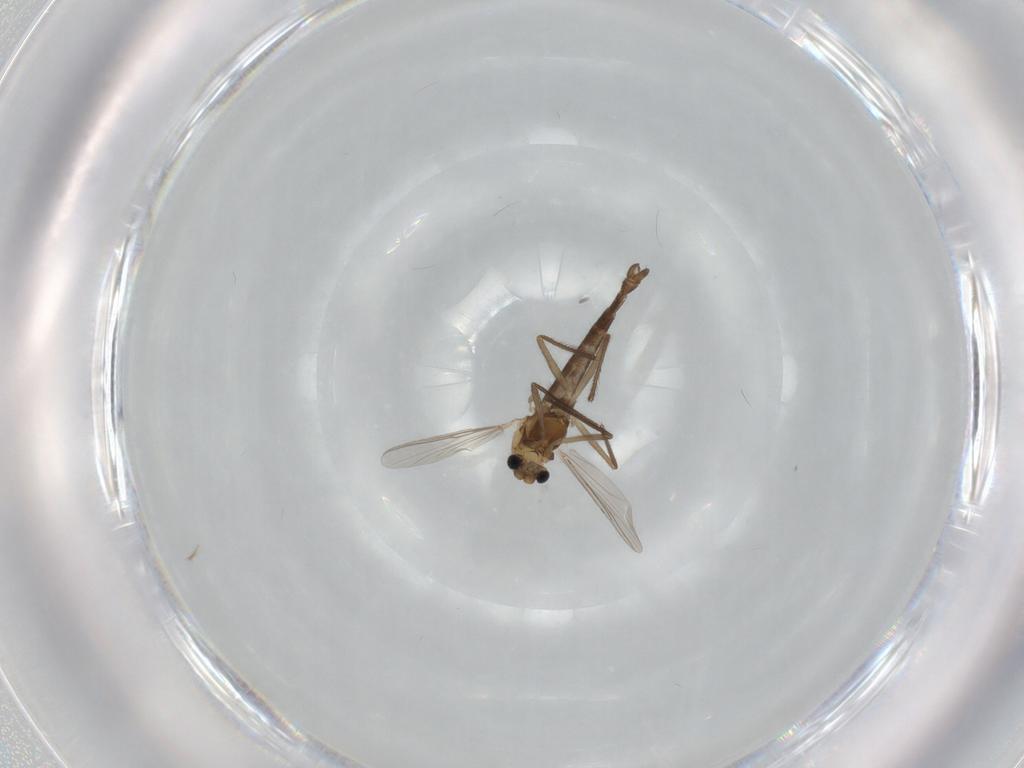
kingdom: Animalia
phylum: Arthropoda
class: Insecta
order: Diptera
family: Chironomidae
